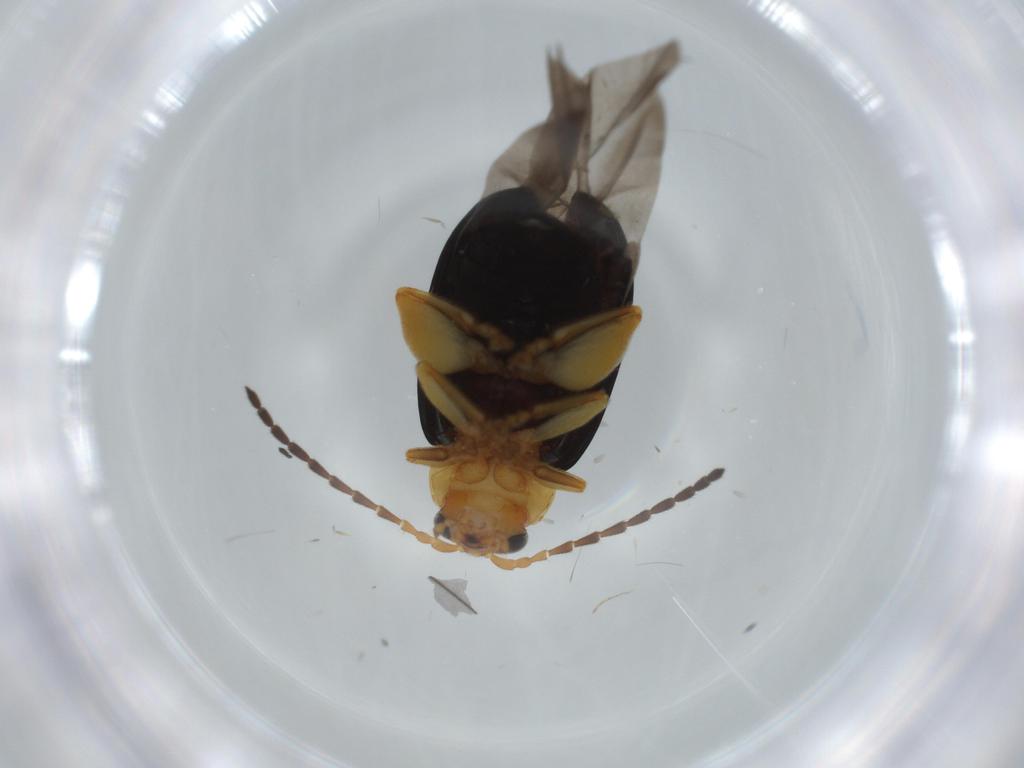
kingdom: Animalia
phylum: Arthropoda
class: Insecta
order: Coleoptera
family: Chrysomelidae
